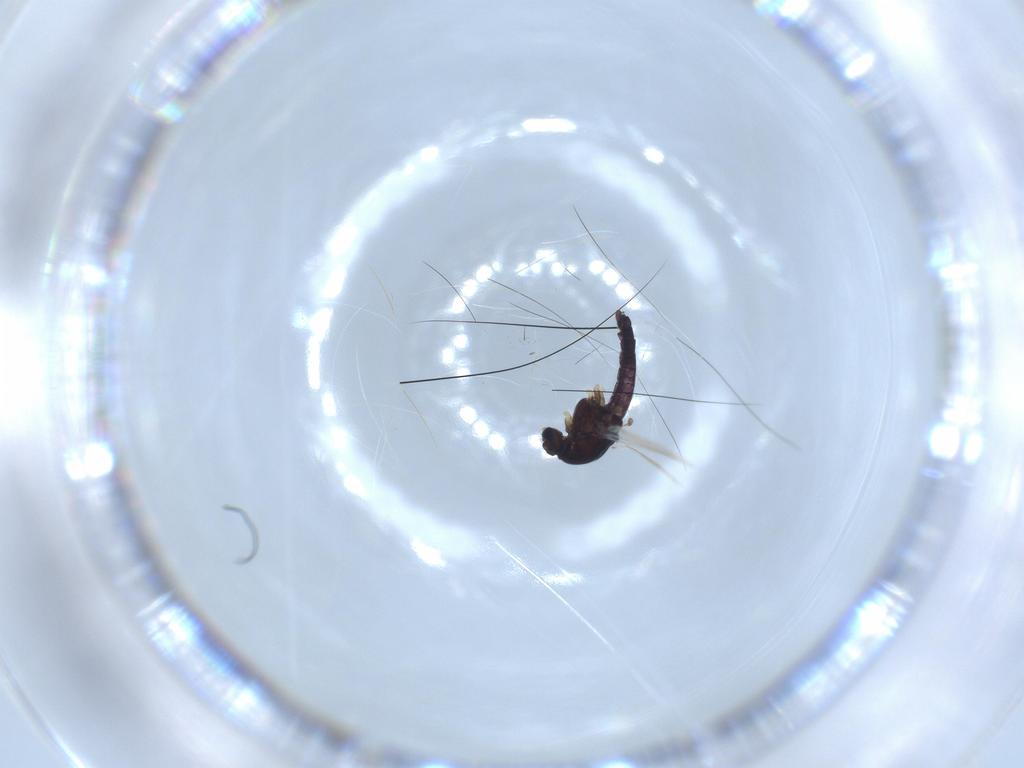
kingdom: Animalia
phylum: Arthropoda
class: Insecta
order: Diptera
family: Chironomidae
